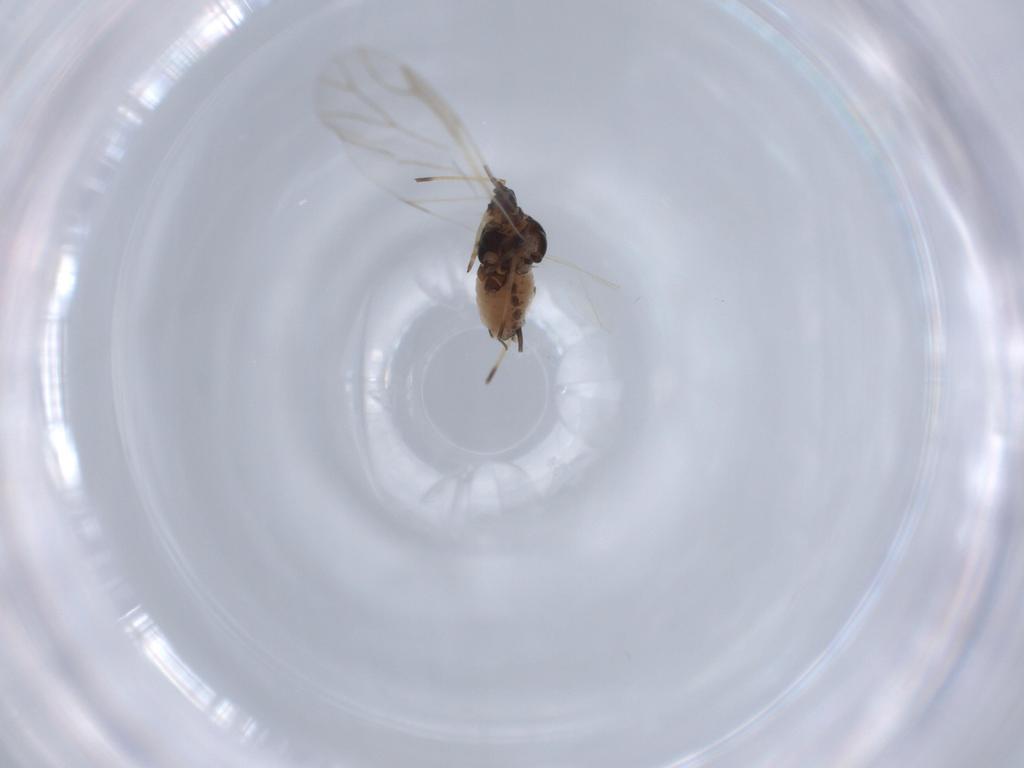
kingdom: Animalia
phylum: Arthropoda
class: Insecta
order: Hemiptera
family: Aphididae
